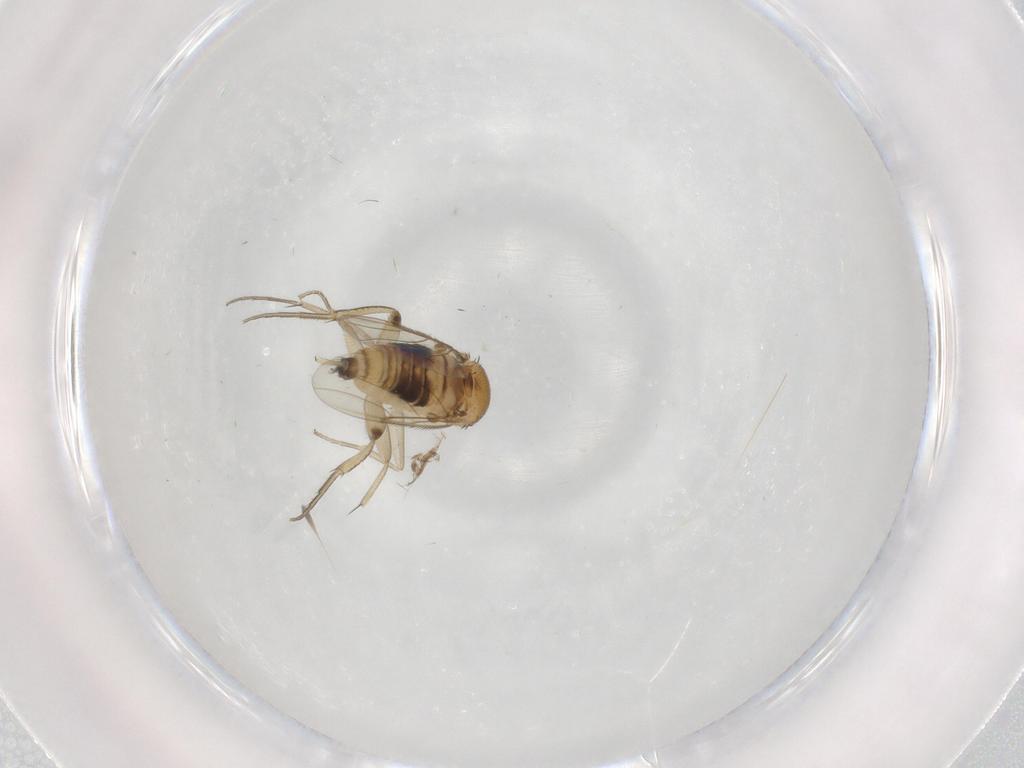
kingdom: Animalia
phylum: Arthropoda
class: Insecta
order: Diptera
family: Phoridae
